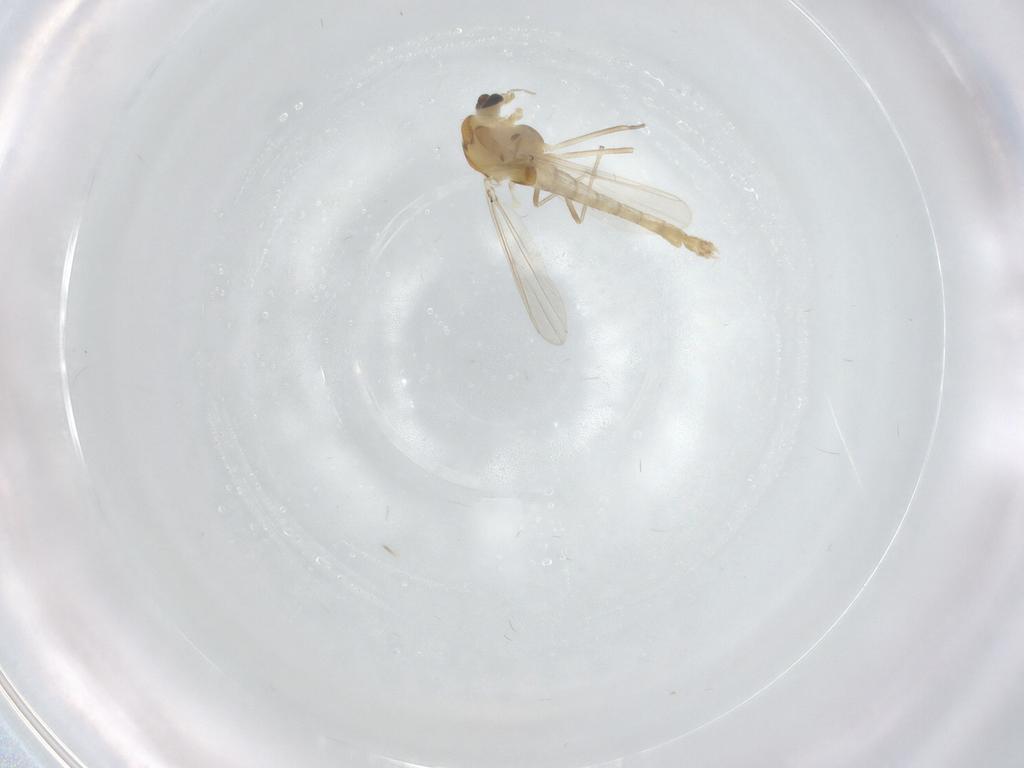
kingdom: Animalia
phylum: Arthropoda
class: Insecta
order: Diptera
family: Chironomidae
